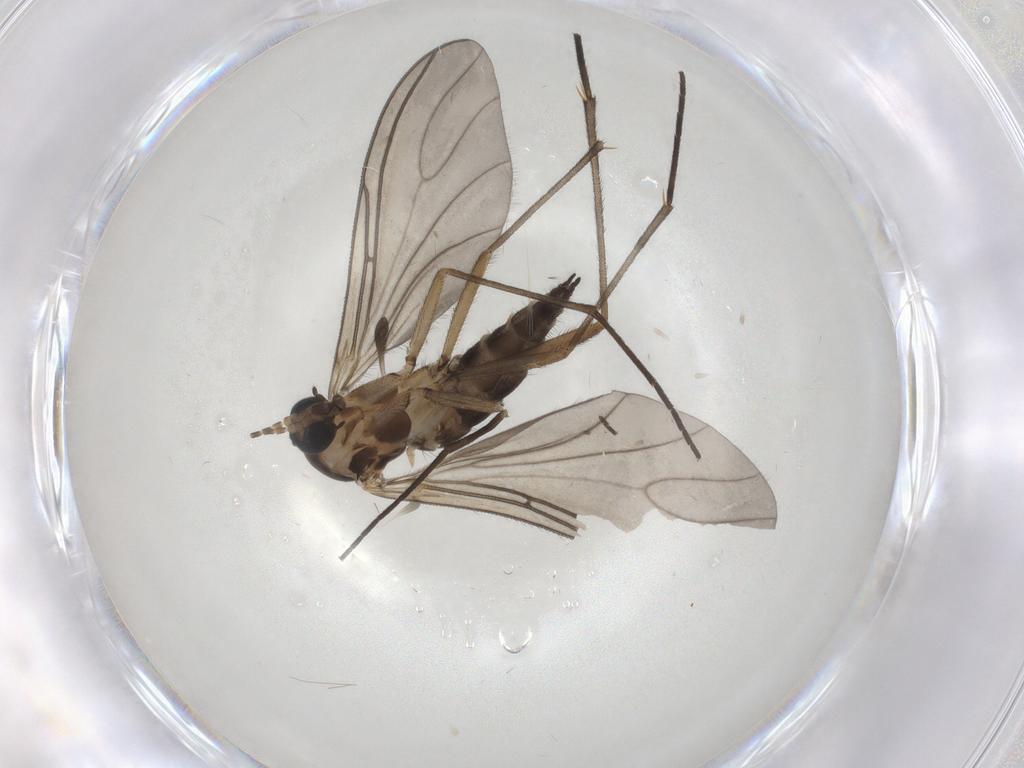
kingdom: Animalia
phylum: Arthropoda
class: Insecta
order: Diptera
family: Sciaridae
